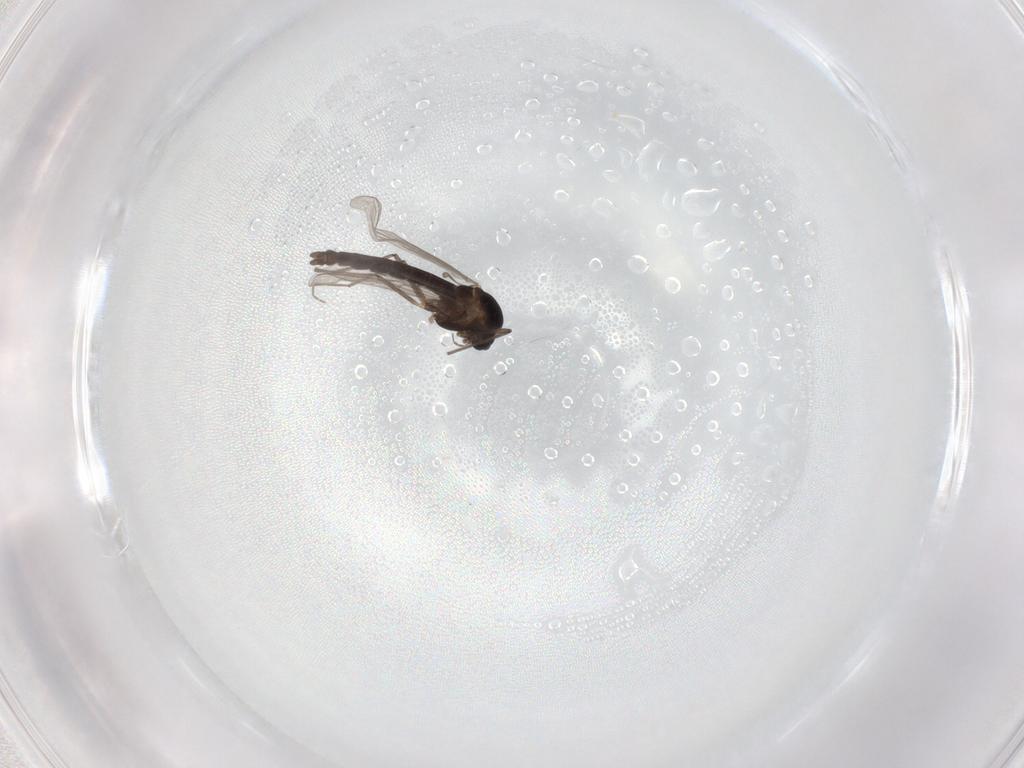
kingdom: Animalia
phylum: Arthropoda
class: Insecta
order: Diptera
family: Chironomidae
